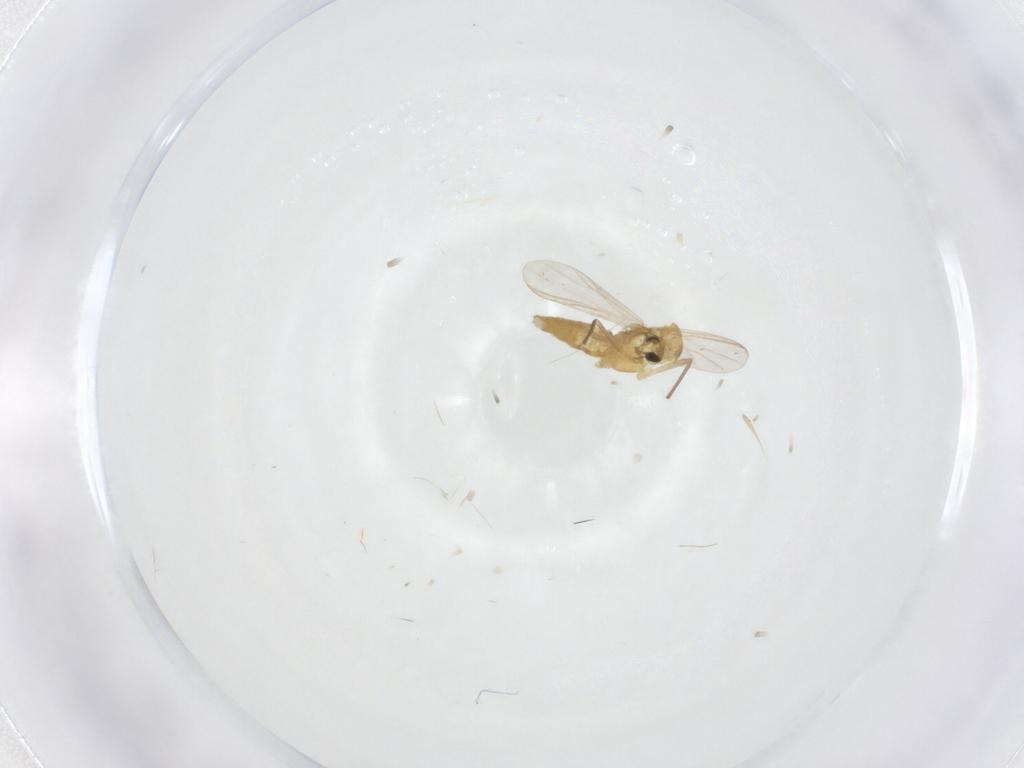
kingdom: Animalia
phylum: Arthropoda
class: Insecta
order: Diptera
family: Chironomidae
